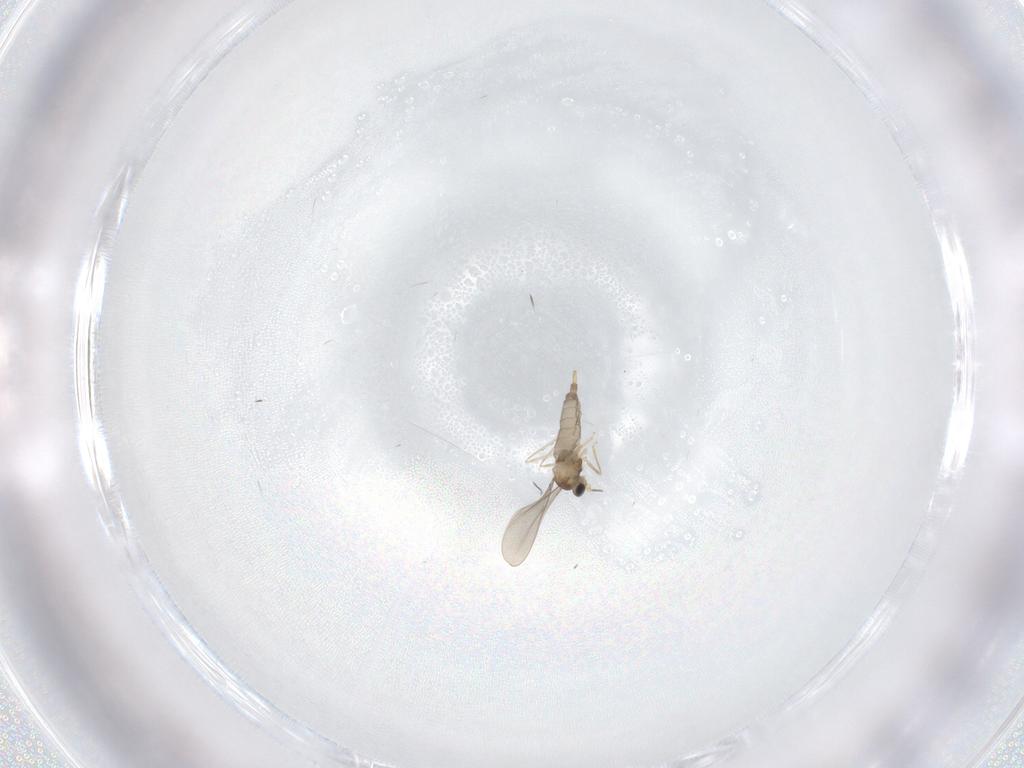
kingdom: Animalia
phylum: Arthropoda
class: Insecta
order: Diptera
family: Cecidomyiidae
